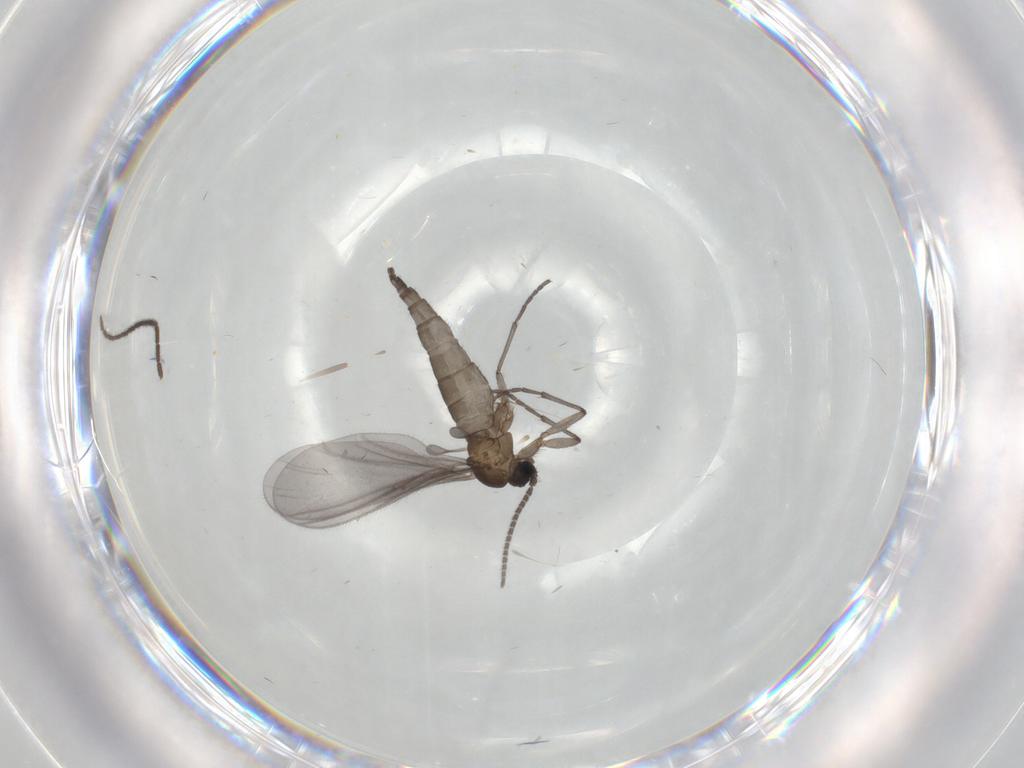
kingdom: Animalia
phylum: Arthropoda
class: Insecta
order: Diptera
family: Sciaridae
